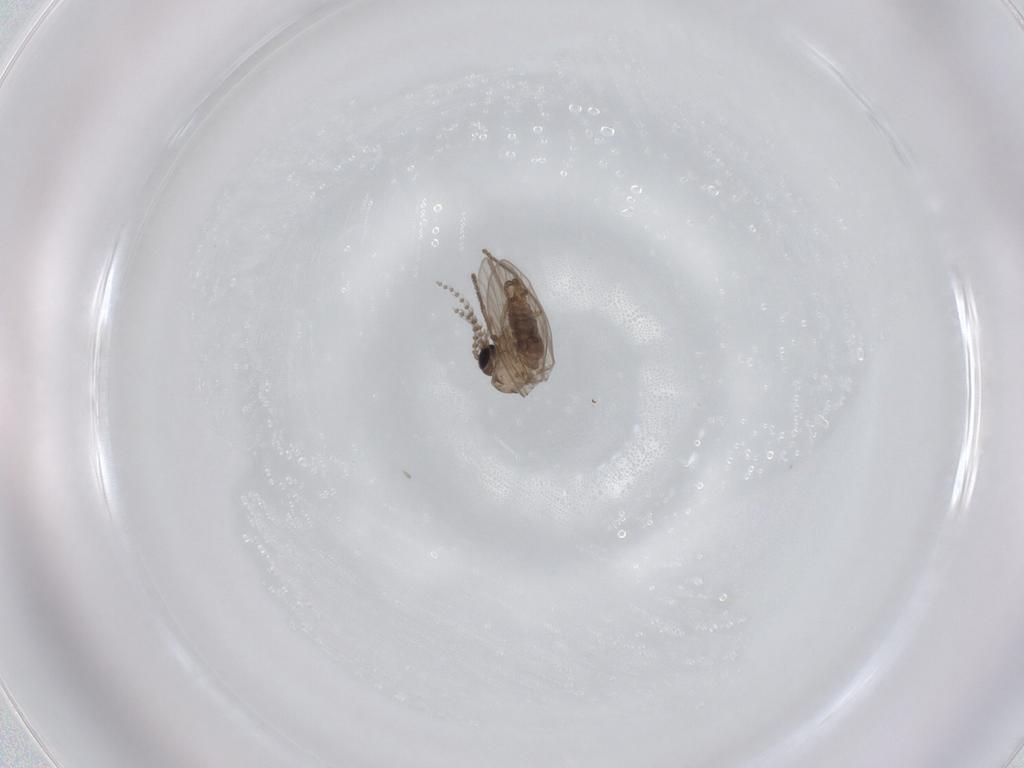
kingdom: Animalia
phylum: Arthropoda
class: Insecta
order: Diptera
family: Psychodidae
